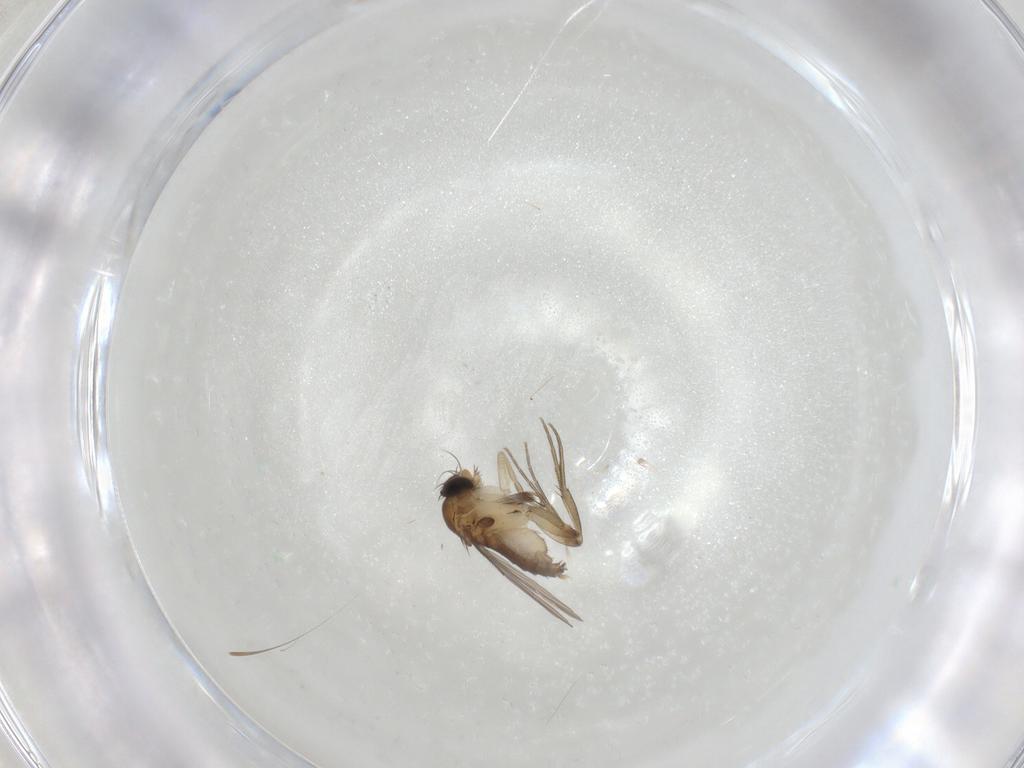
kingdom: Animalia
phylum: Arthropoda
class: Insecta
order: Diptera
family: Phoridae
